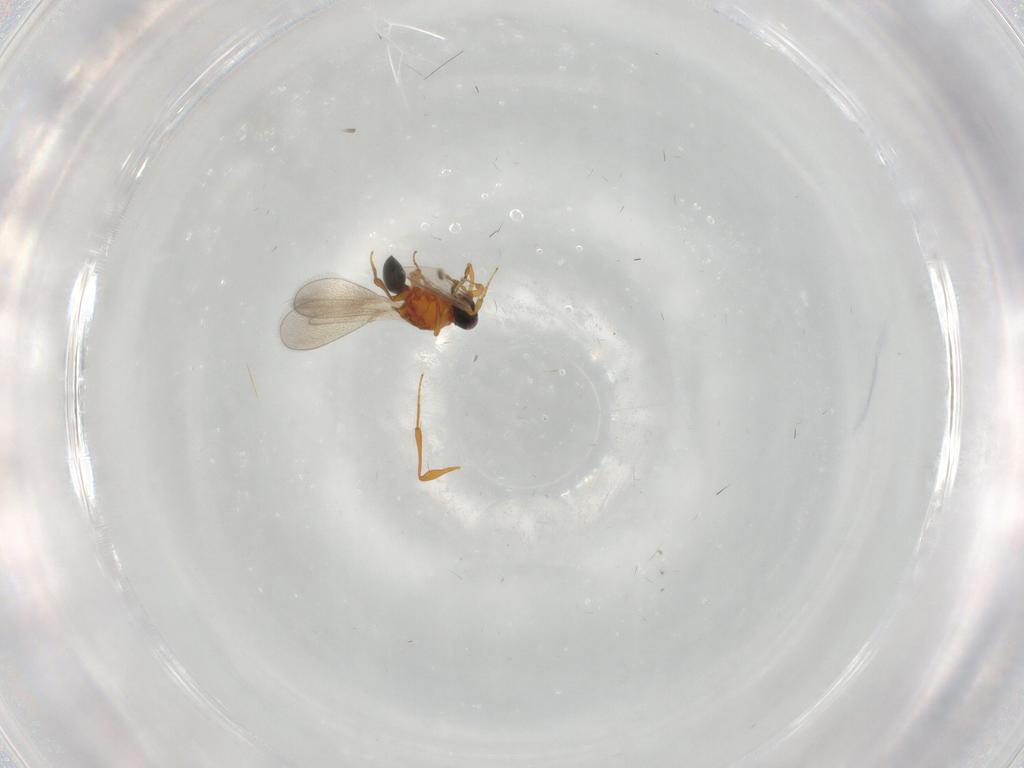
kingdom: Animalia
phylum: Arthropoda
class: Insecta
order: Hymenoptera
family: Platygastridae
